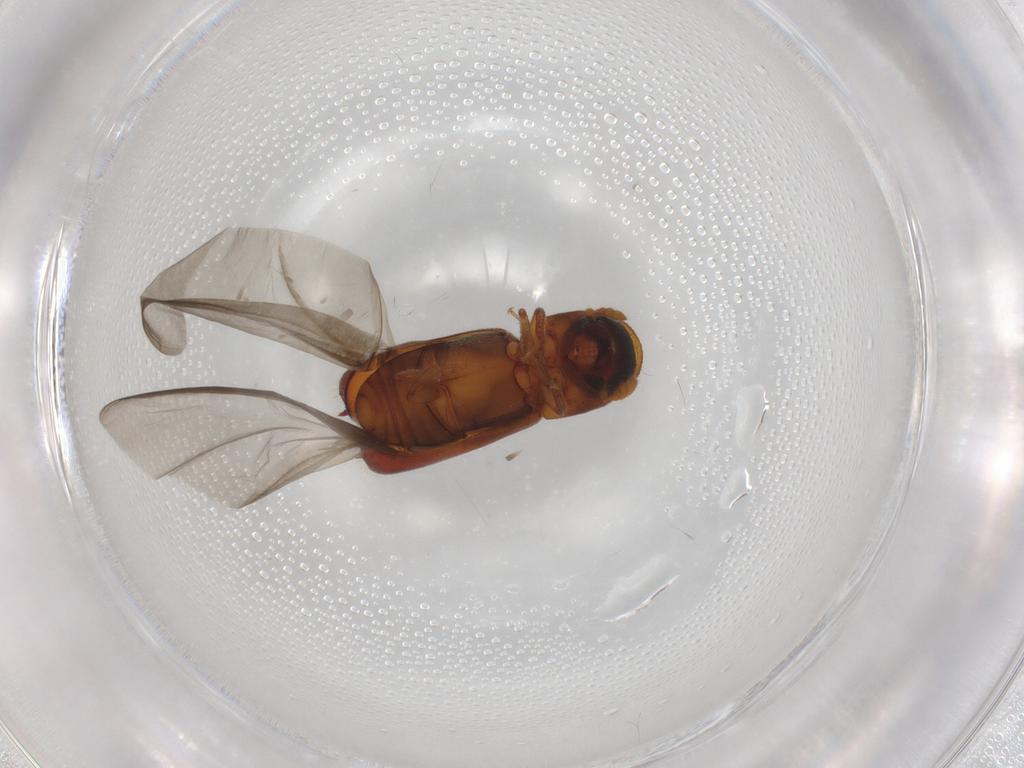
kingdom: Animalia
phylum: Arthropoda
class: Insecta
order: Coleoptera
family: Curculionidae
